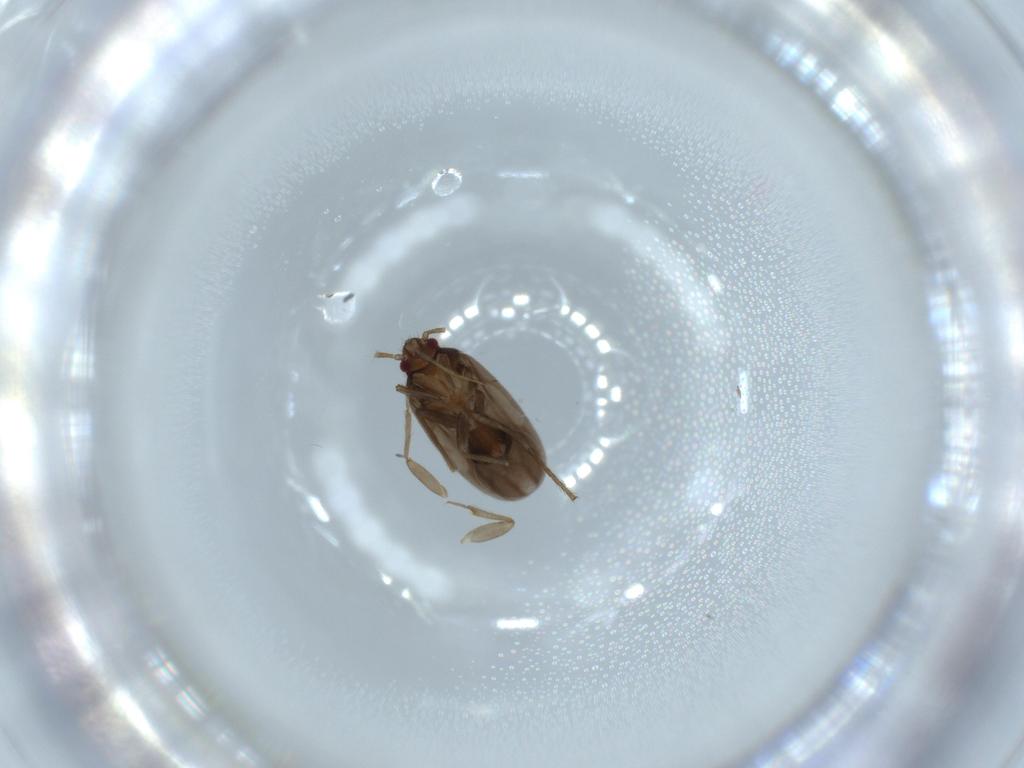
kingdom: Animalia
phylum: Arthropoda
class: Insecta
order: Hemiptera
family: Ceratocombidae
